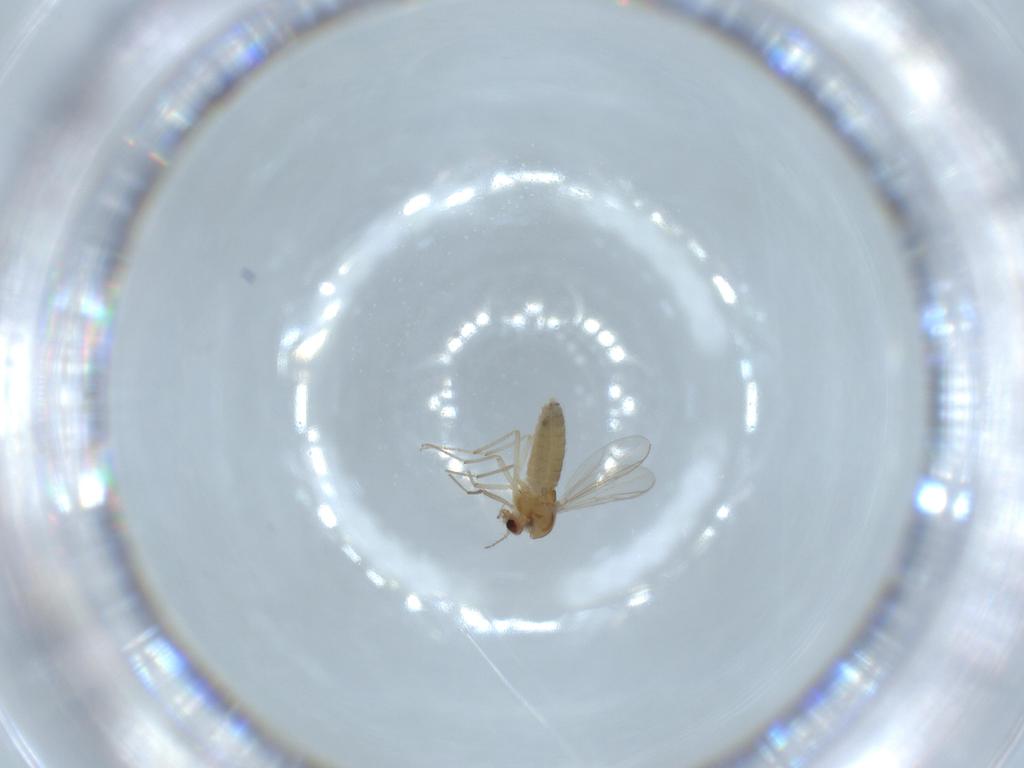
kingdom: Animalia
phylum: Arthropoda
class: Insecta
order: Diptera
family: Chironomidae
